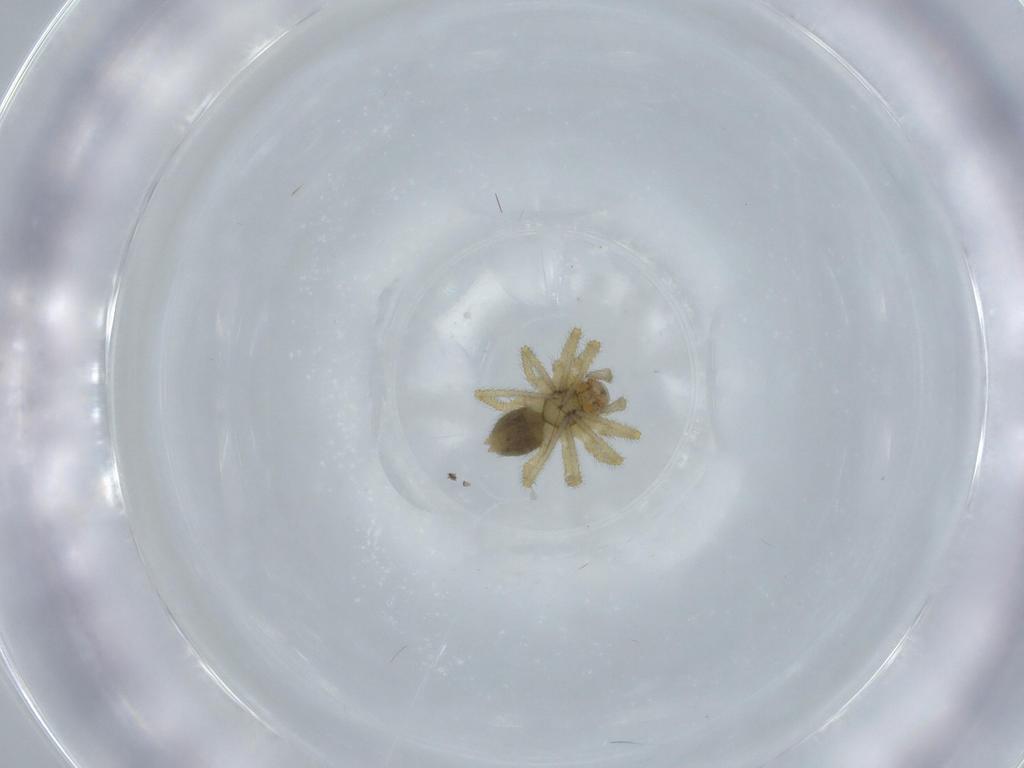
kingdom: Animalia
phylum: Arthropoda
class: Arachnida
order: Araneae
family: Linyphiidae
